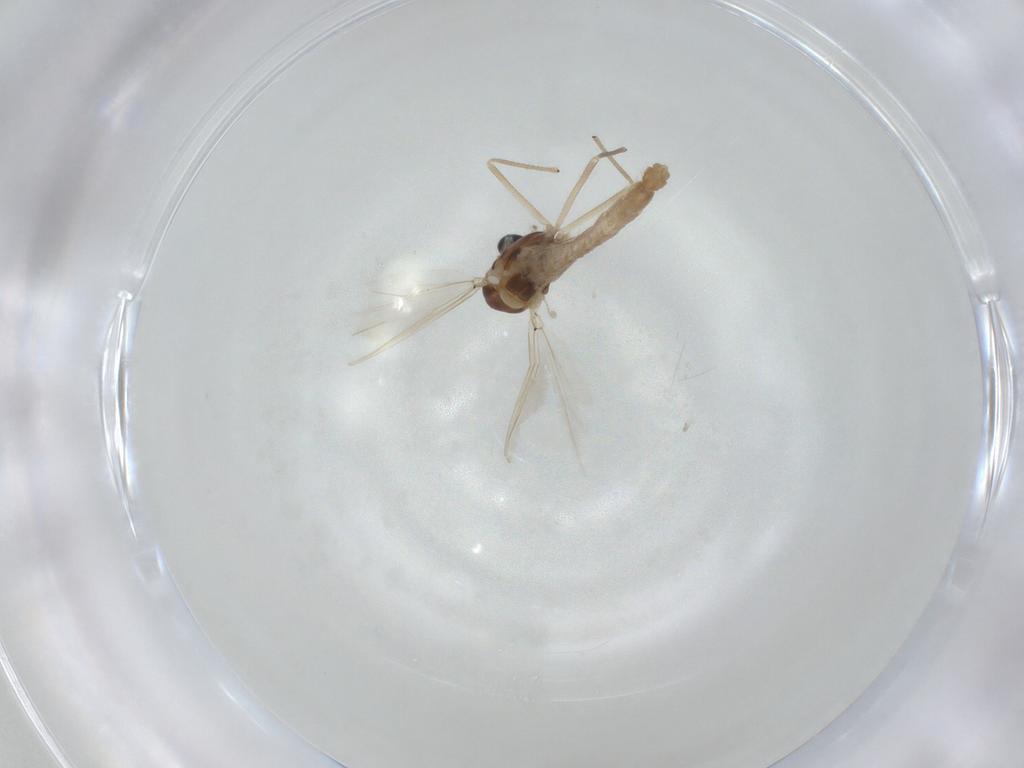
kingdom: Animalia
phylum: Arthropoda
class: Insecta
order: Diptera
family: Chironomidae
